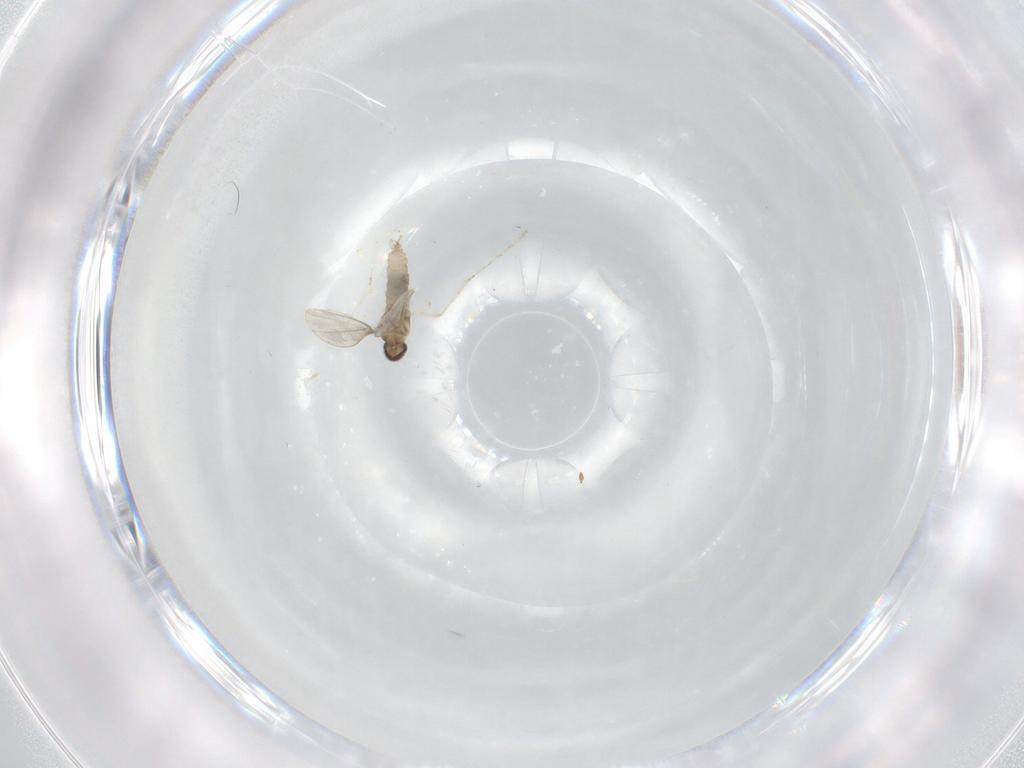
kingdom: Animalia
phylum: Arthropoda
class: Insecta
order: Diptera
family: Cecidomyiidae
